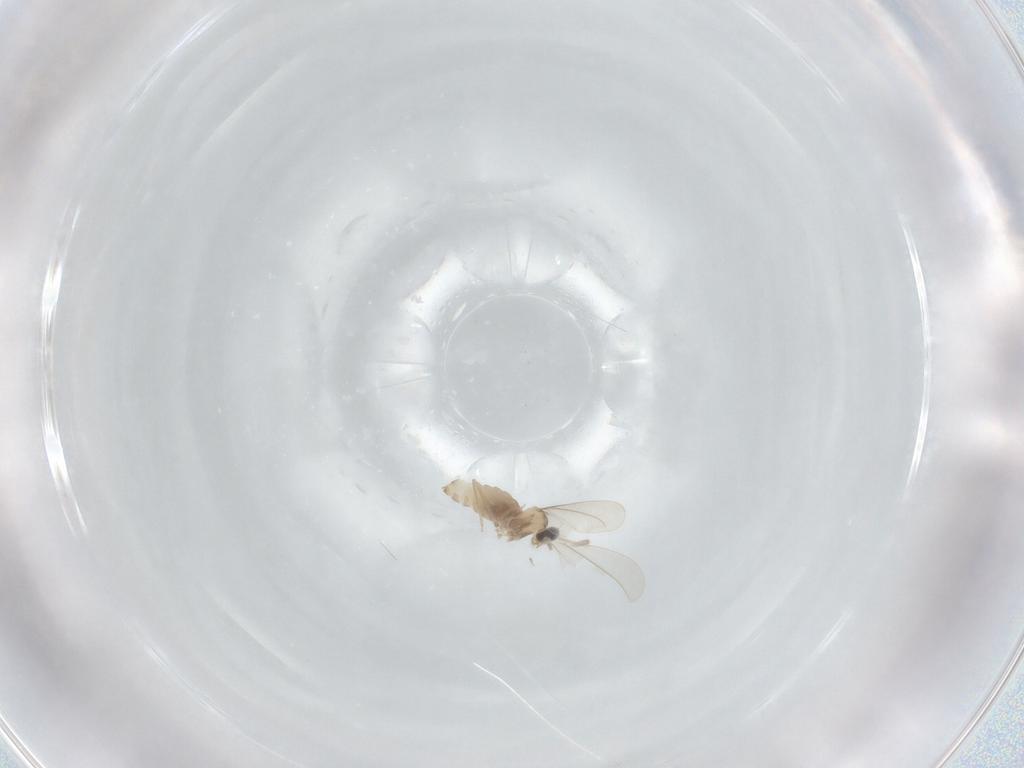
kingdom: Animalia
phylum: Arthropoda
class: Insecta
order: Diptera
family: Cecidomyiidae
